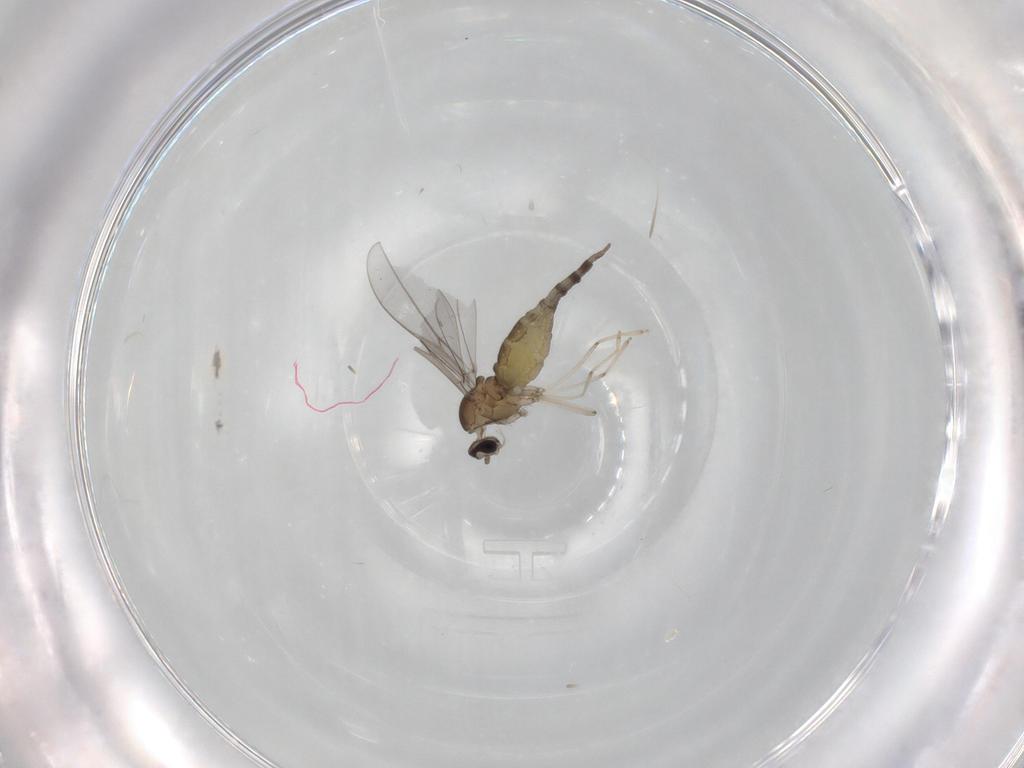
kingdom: Animalia
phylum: Arthropoda
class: Insecta
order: Diptera
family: Cecidomyiidae
